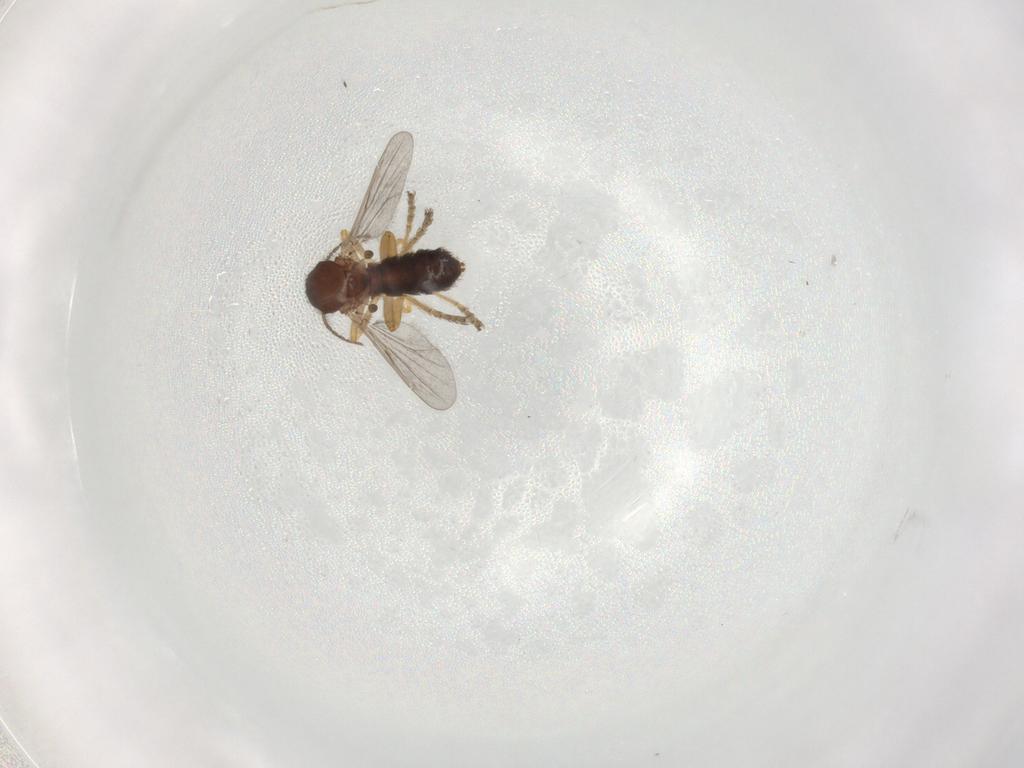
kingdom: Animalia
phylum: Arthropoda
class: Insecta
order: Diptera
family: Ceratopogonidae
